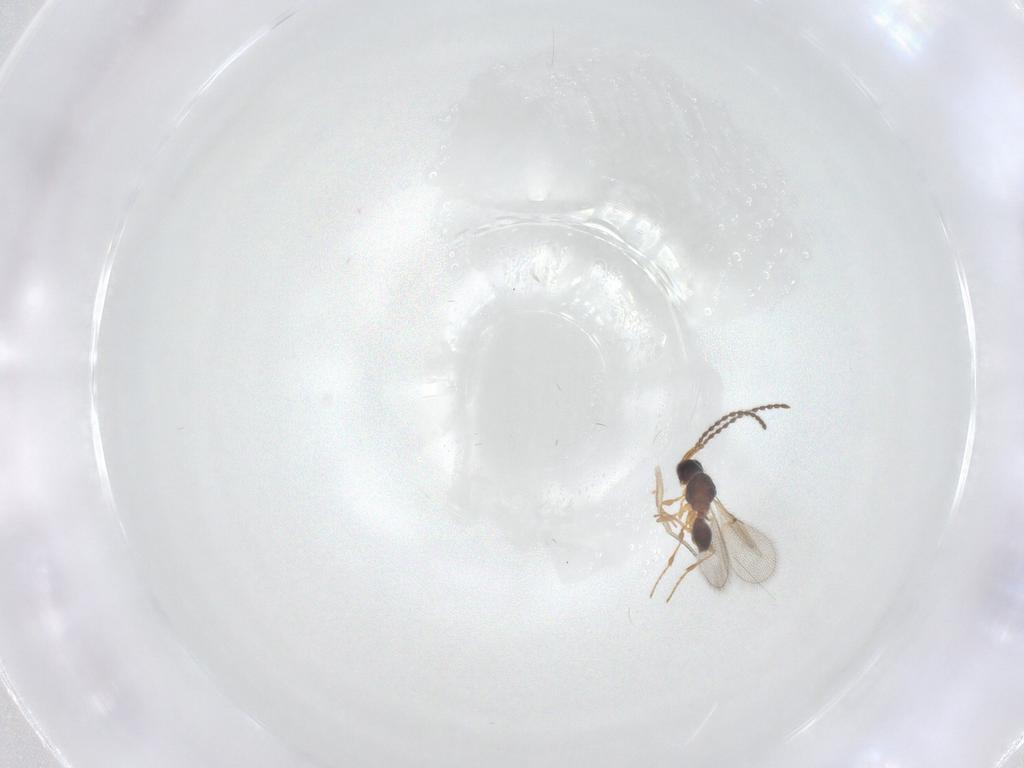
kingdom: Animalia
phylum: Arthropoda
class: Insecta
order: Hymenoptera
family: Diapriidae
